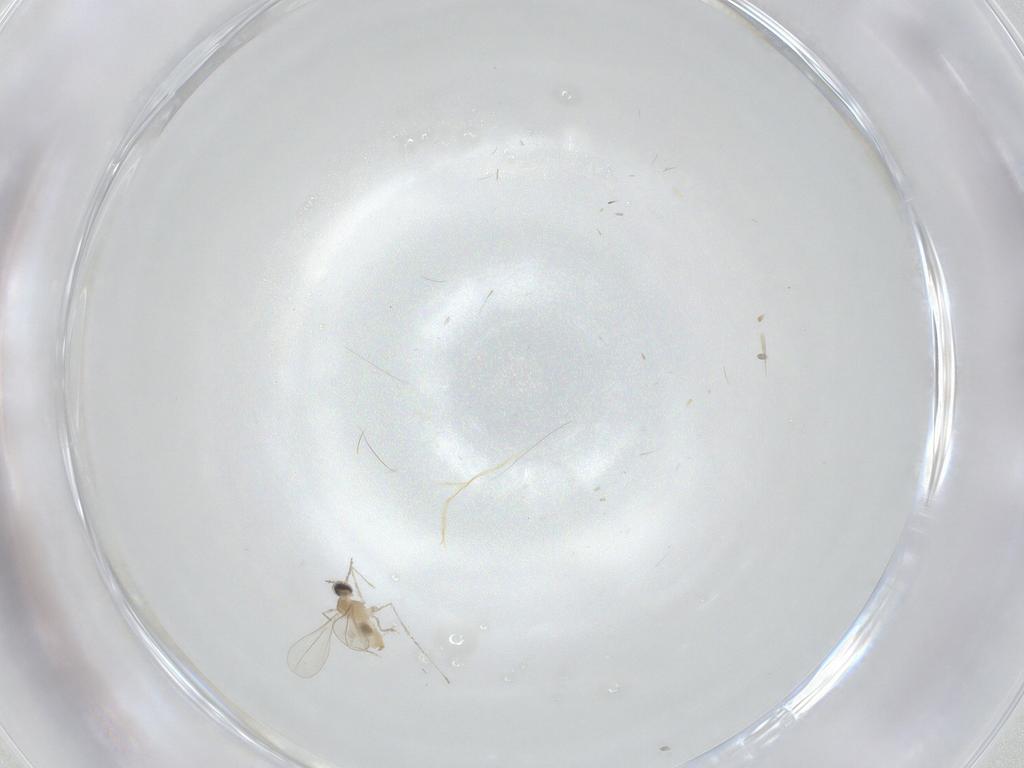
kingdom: Animalia
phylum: Arthropoda
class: Insecta
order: Diptera
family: Cecidomyiidae
